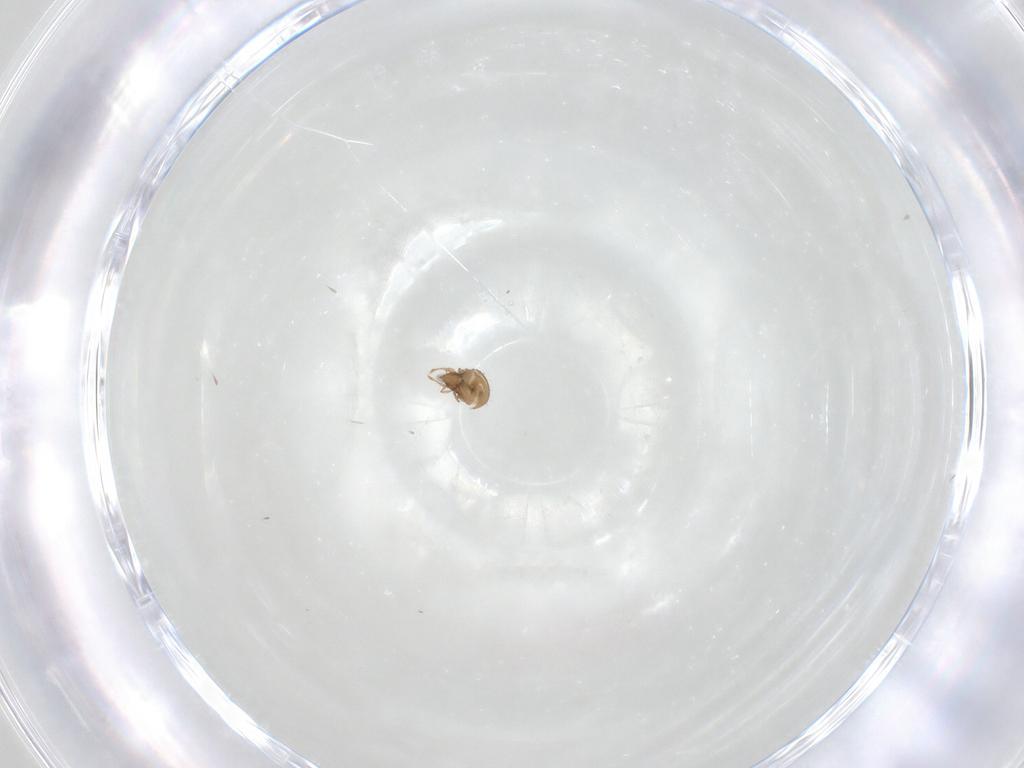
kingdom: Animalia
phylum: Arthropoda
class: Arachnida
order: Sarcoptiformes
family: Oribatulidae
